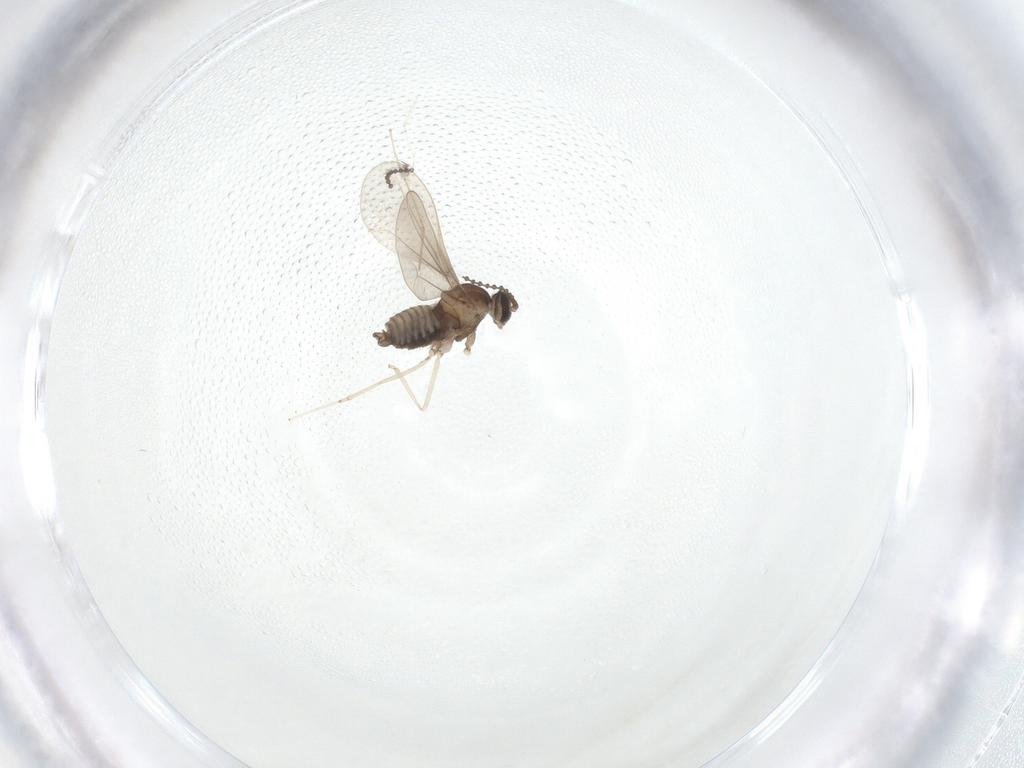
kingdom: Animalia
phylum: Arthropoda
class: Insecta
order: Diptera
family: Cecidomyiidae
